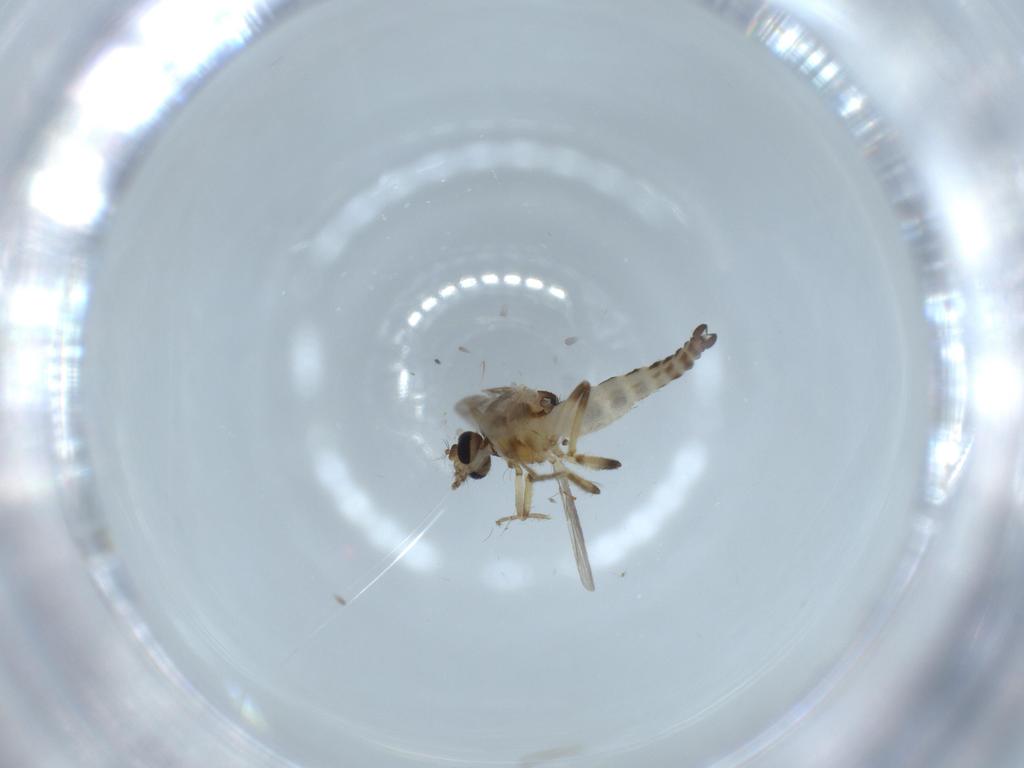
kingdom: Animalia
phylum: Arthropoda
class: Insecta
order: Diptera
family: Ceratopogonidae
